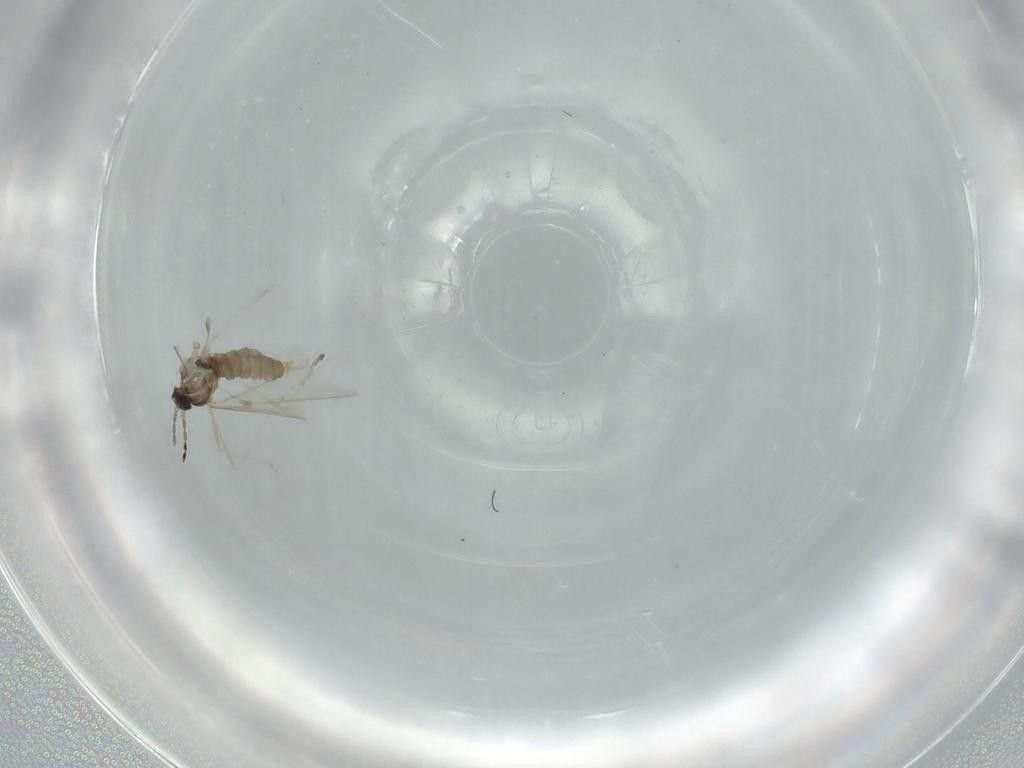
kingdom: Animalia
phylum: Arthropoda
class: Insecta
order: Diptera
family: Cecidomyiidae
